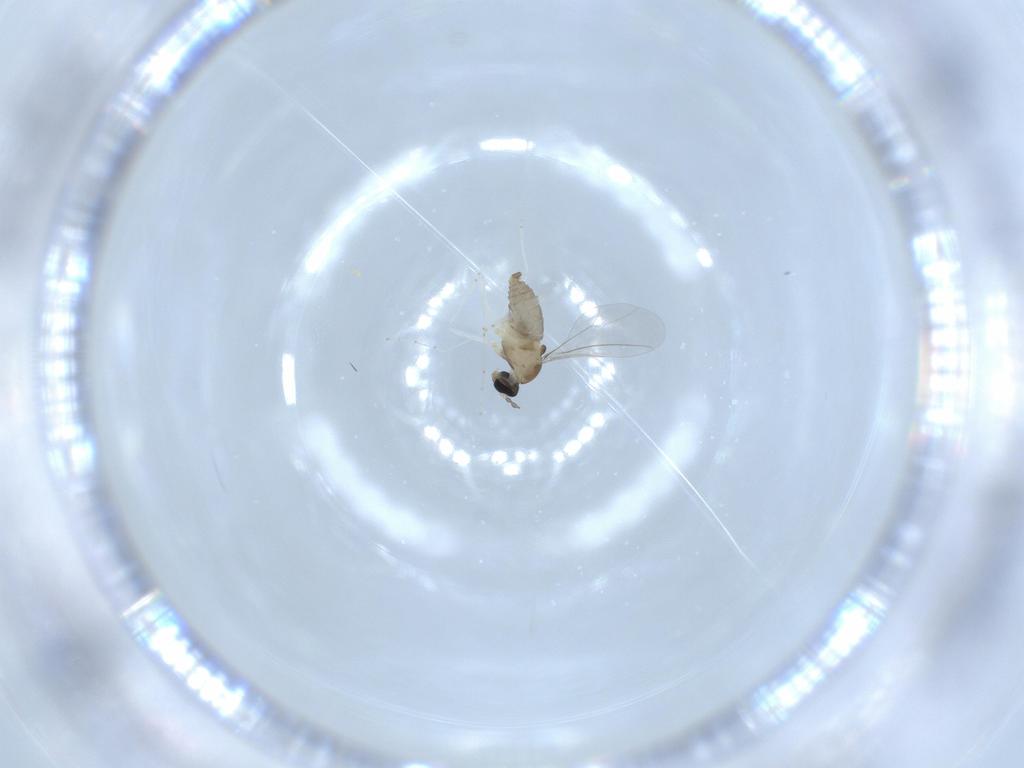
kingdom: Animalia
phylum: Arthropoda
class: Insecta
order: Diptera
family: Cecidomyiidae
